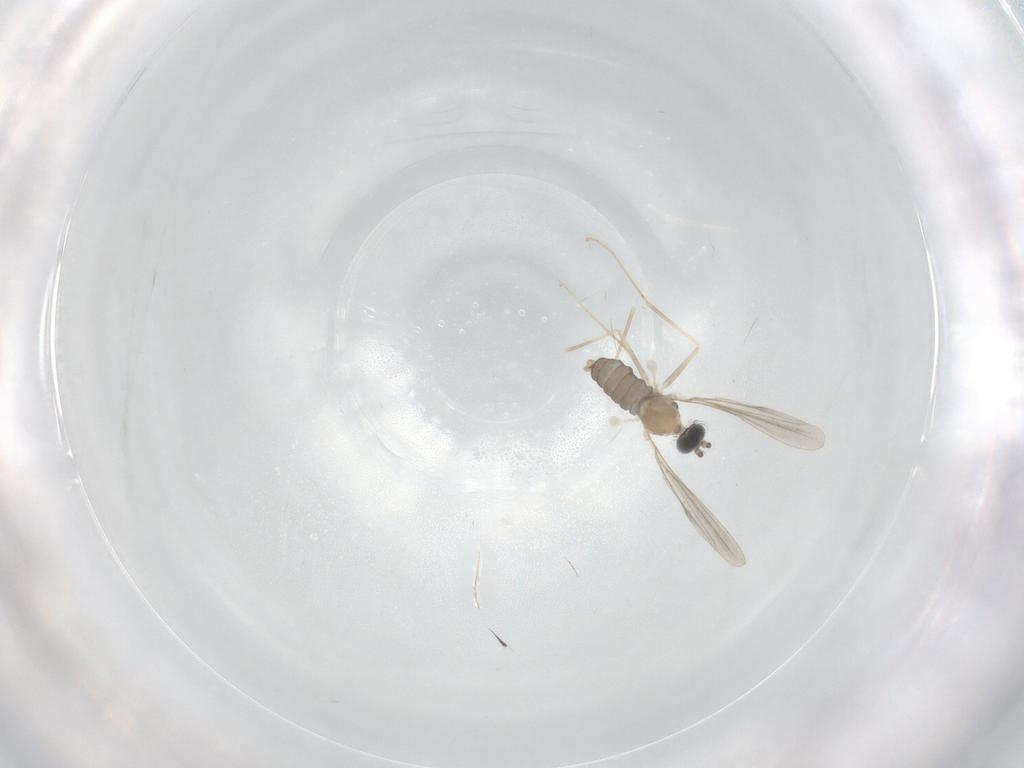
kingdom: Animalia
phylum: Arthropoda
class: Insecta
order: Diptera
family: Cecidomyiidae
